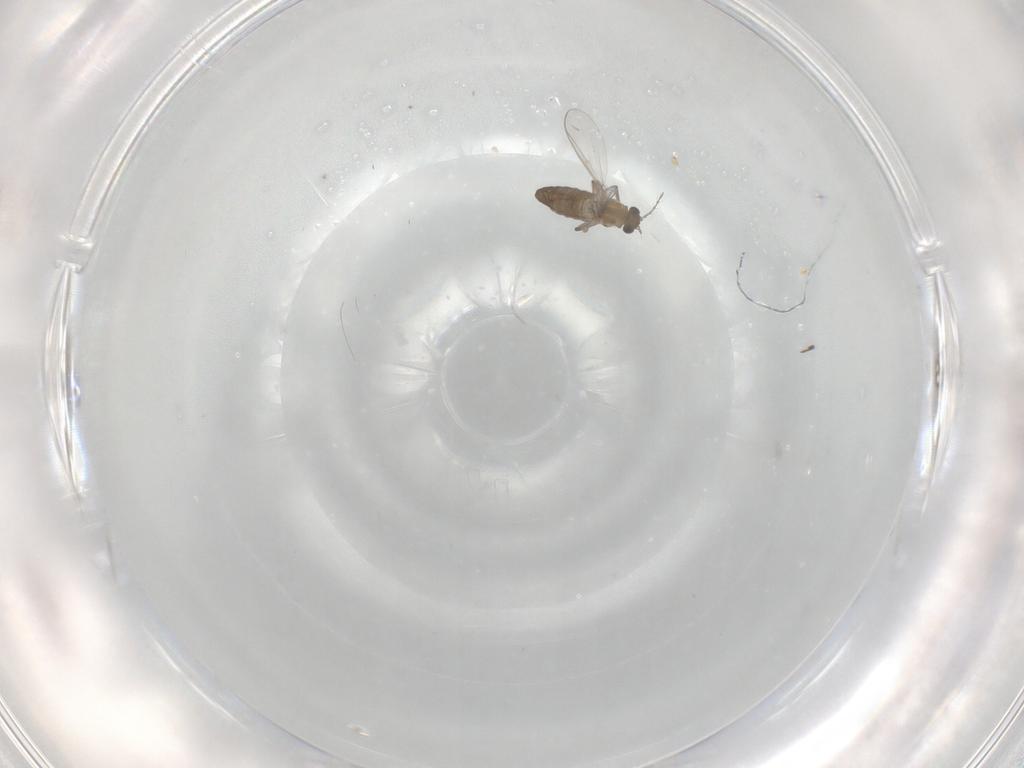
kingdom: Animalia
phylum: Arthropoda
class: Insecta
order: Diptera
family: Chironomidae
